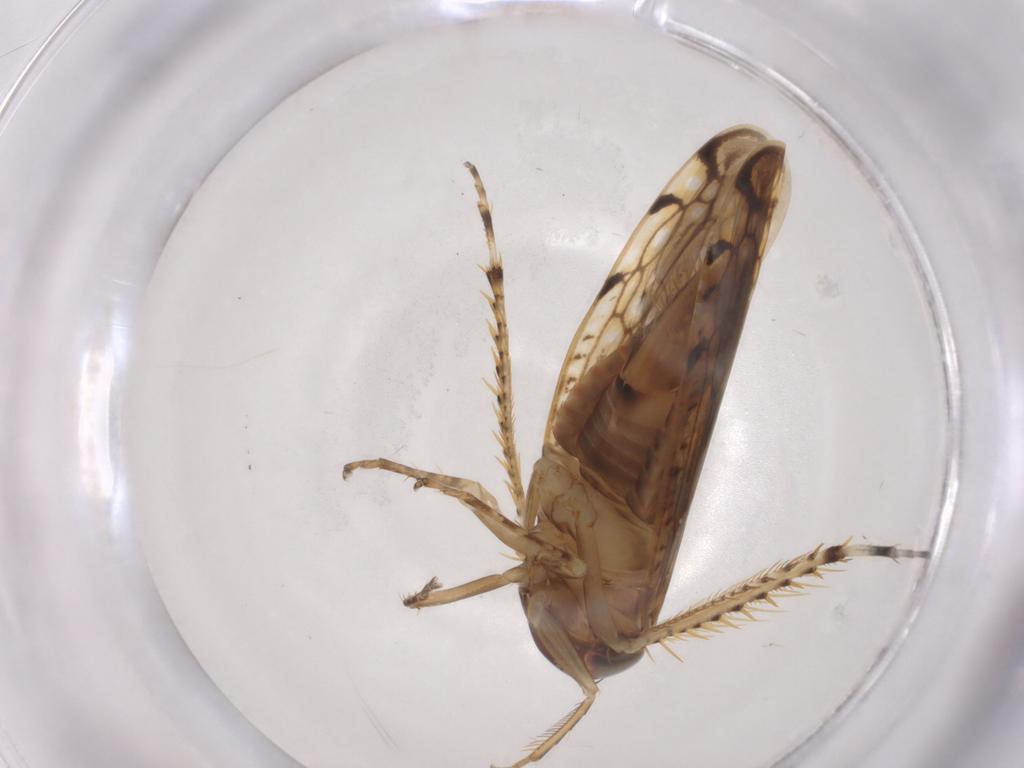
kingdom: Animalia
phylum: Arthropoda
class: Insecta
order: Hemiptera
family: Cicadellidae
